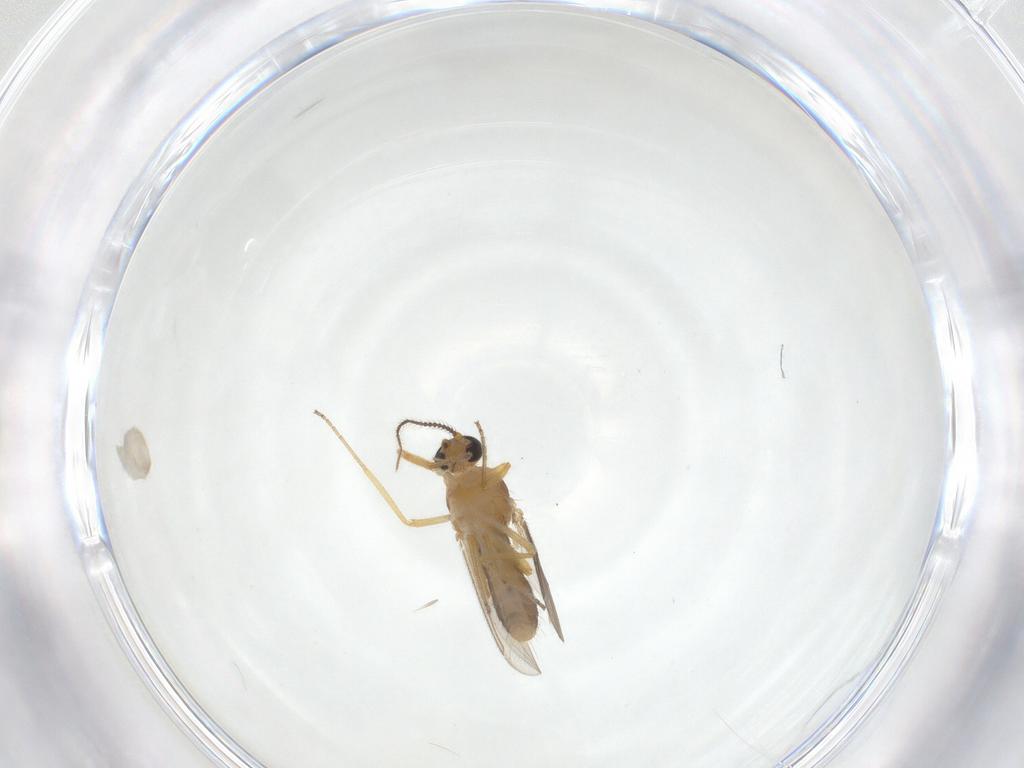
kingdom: Animalia
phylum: Arthropoda
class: Insecta
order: Diptera
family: Ceratopogonidae
